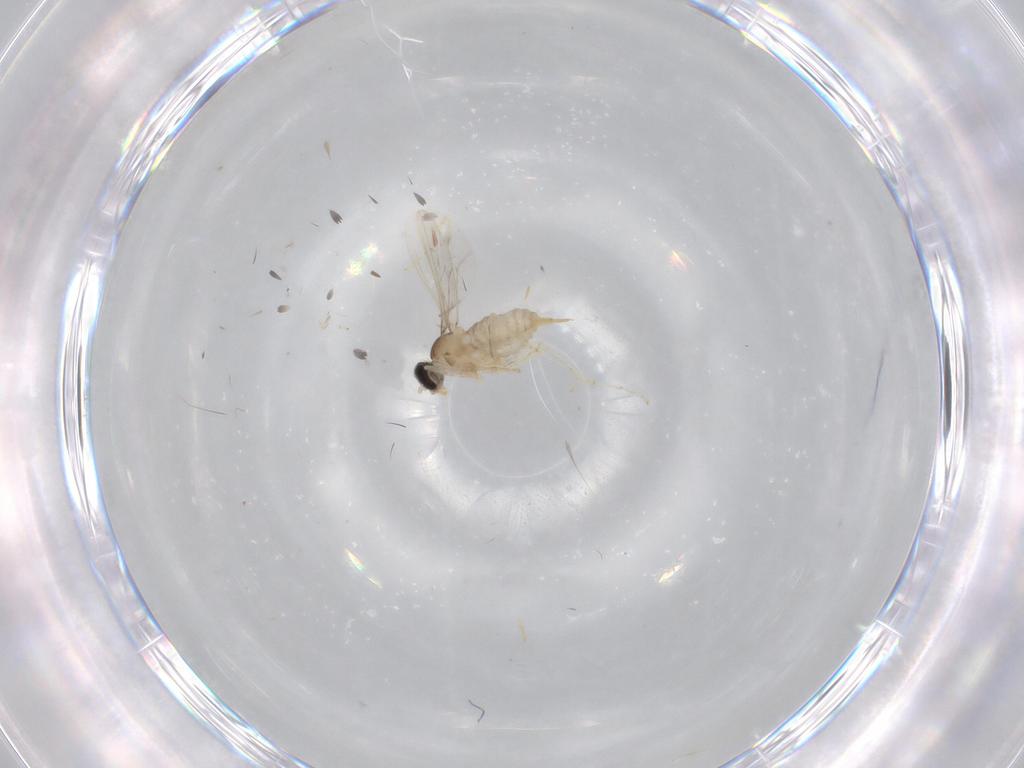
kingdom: Animalia
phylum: Arthropoda
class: Insecta
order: Diptera
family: Cecidomyiidae
